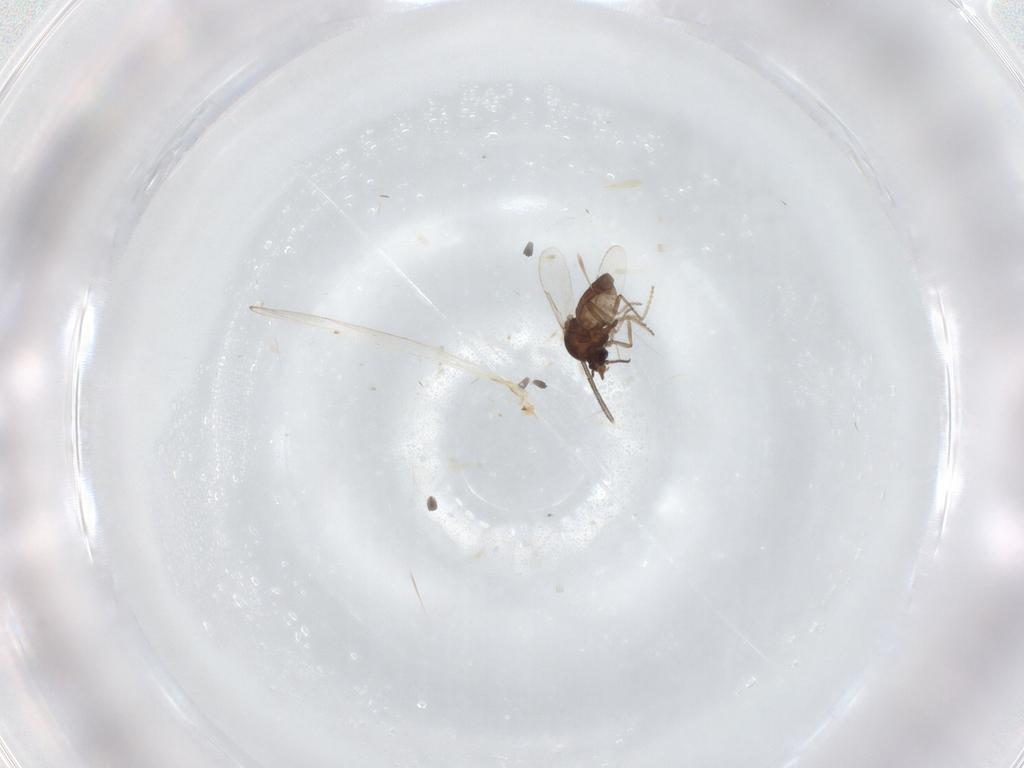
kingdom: Animalia
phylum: Arthropoda
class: Insecta
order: Diptera
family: Ceratopogonidae
